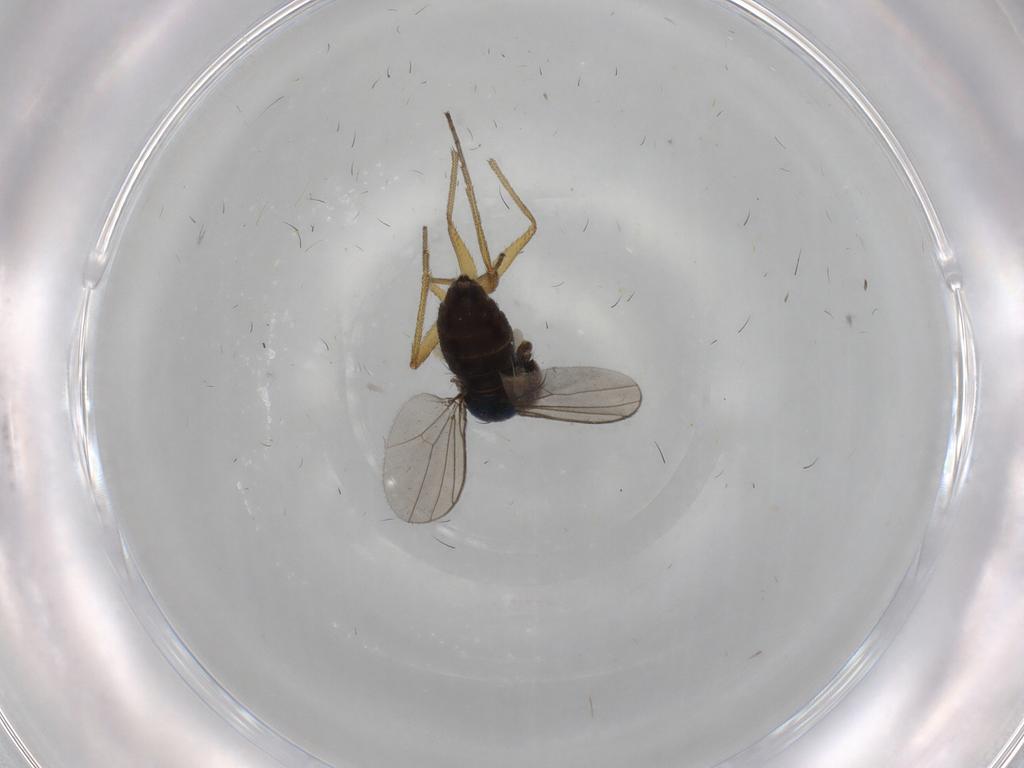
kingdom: Animalia
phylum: Arthropoda
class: Insecta
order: Diptera
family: Dolichopodidae
